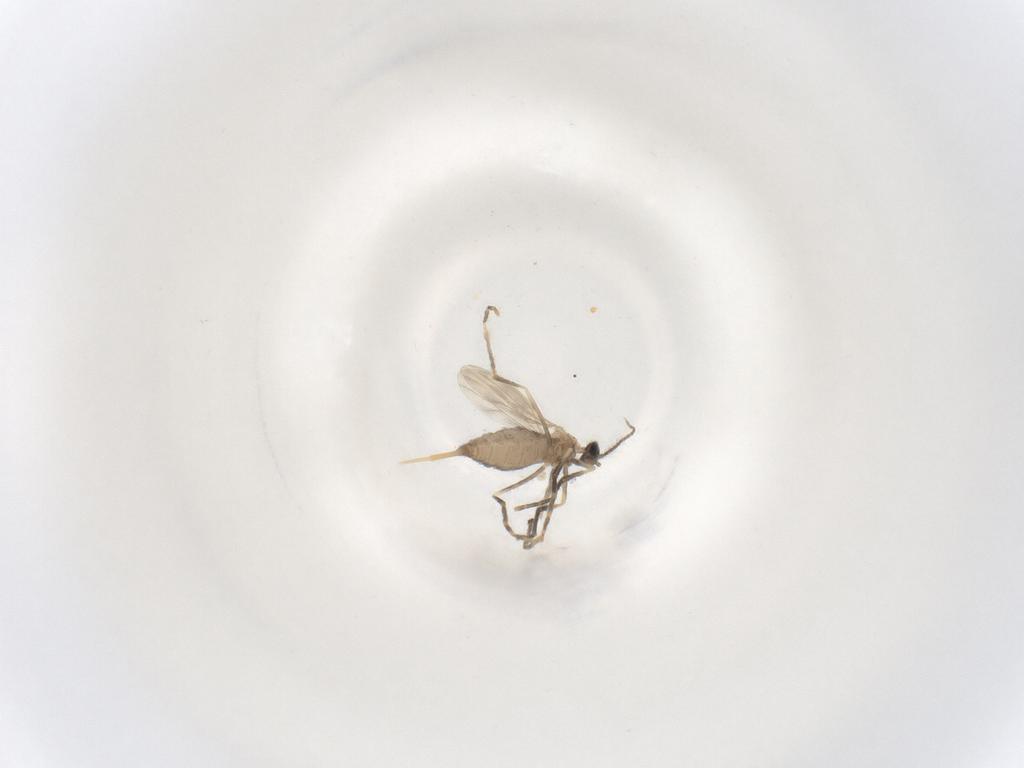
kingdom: Animalia
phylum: Arthropoda
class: Insecta
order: Diptera
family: Cecidomyiidae
